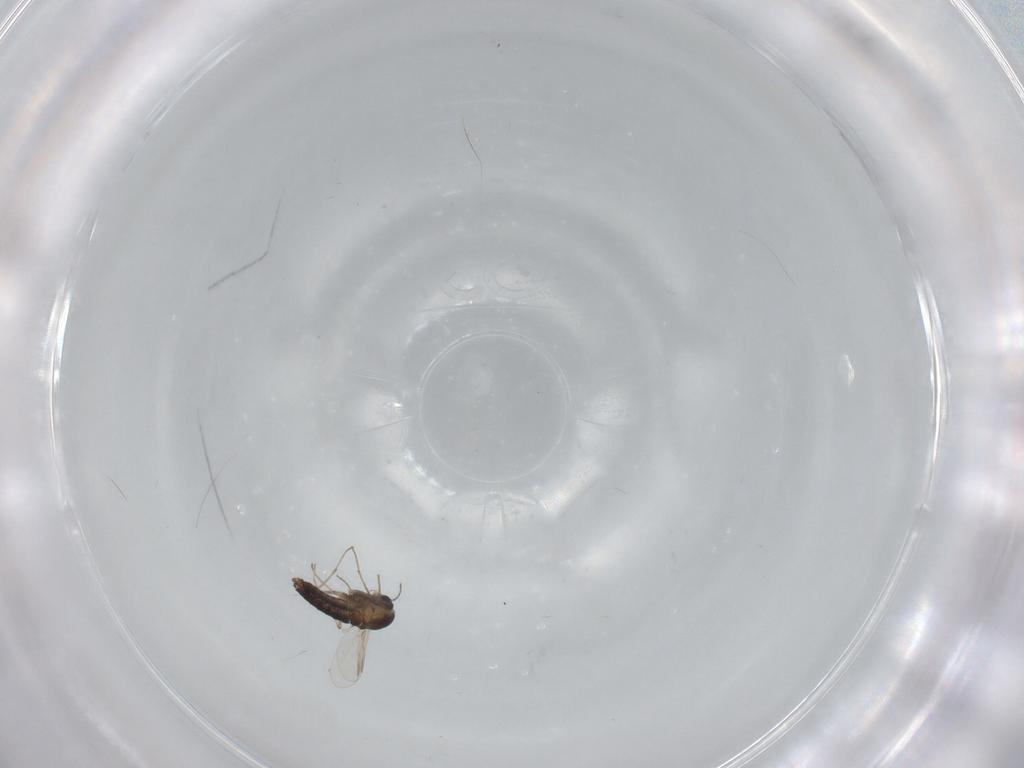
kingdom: Animalia
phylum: Arthropoda
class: Insecta
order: Diptera
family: Chironomidae
